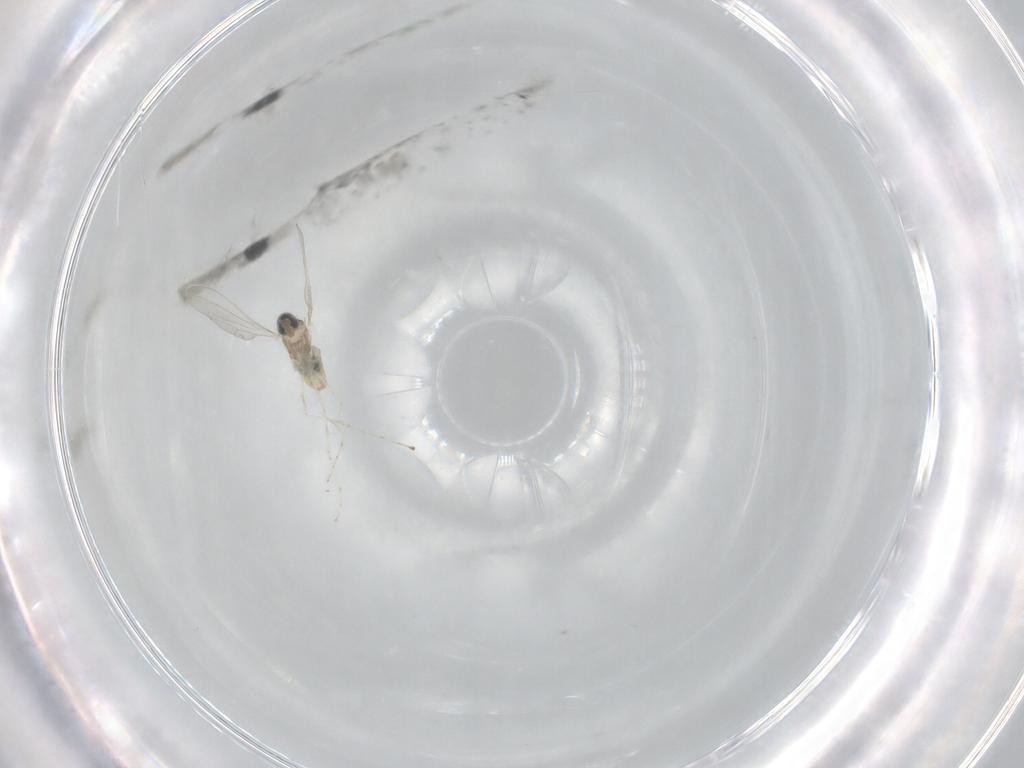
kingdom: Animalia
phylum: Arthropoda
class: Insecta
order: Diptera
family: Cecidomyiidae
